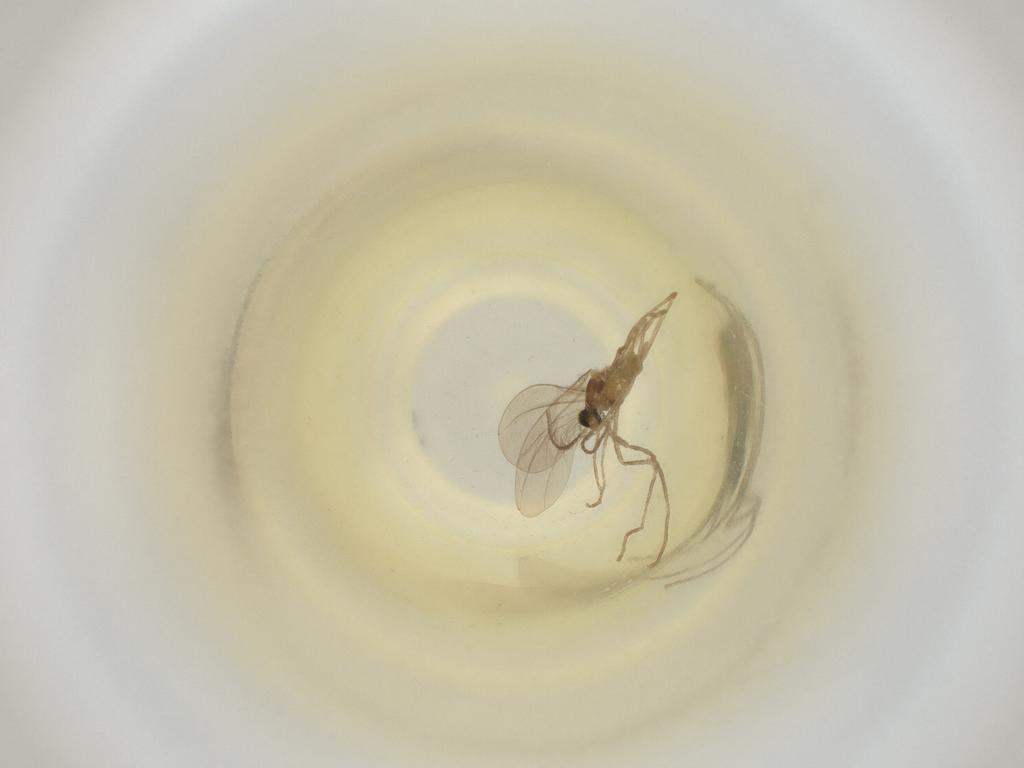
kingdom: Animalia
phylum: Arthropoda
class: Insecta
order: Diptera
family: Cecidomyiidae
